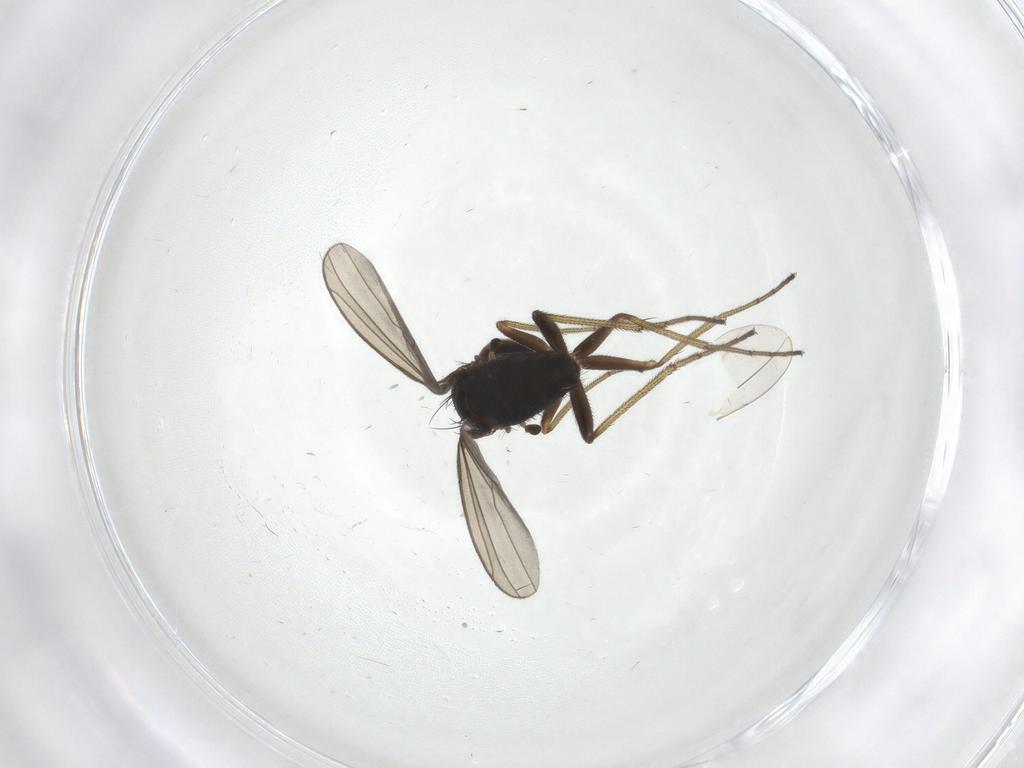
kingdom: Animalia
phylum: Arthropoda
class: Insecta
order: Diptera
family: Dolichopodidae
